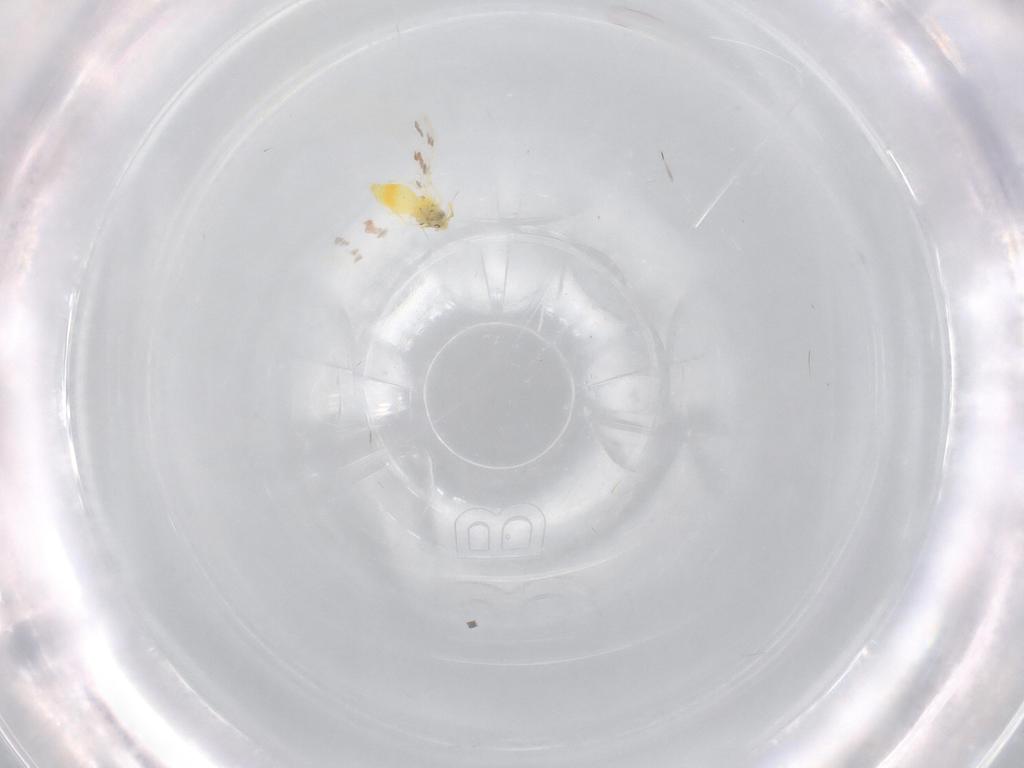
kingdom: Animalia
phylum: Arthropoda
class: Insecta
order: Hemiptera
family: Aleyrodidae
